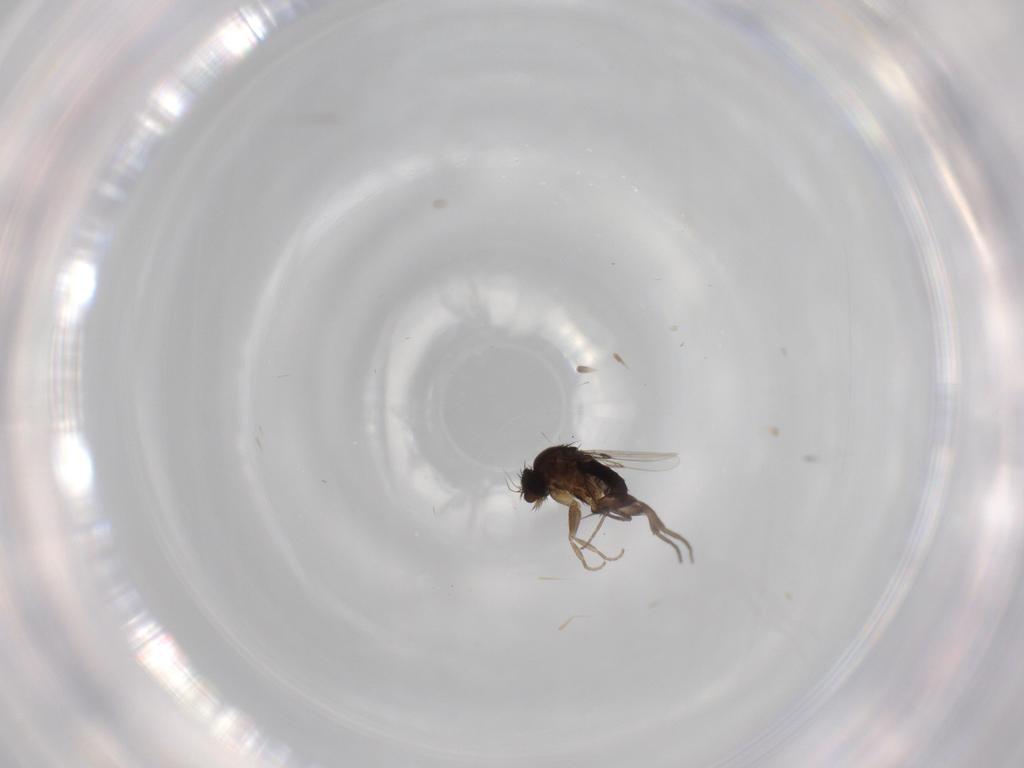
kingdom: Animalia
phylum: Arthropoda
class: Insecta
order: Diptera
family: Phoridae
